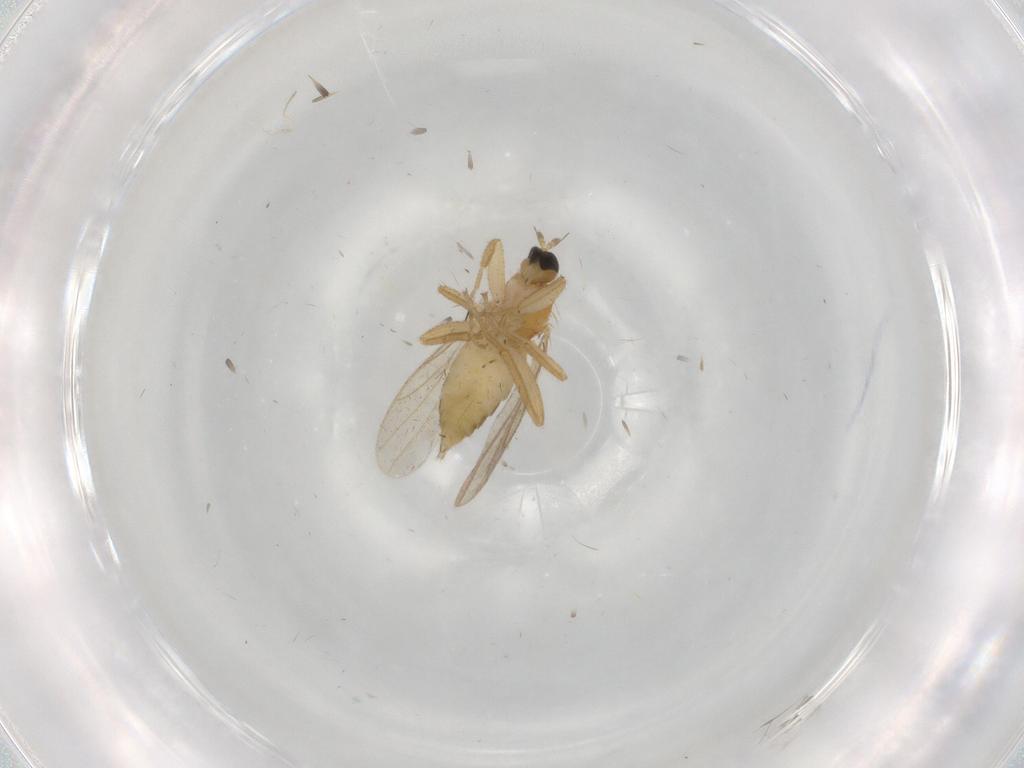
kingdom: Animalia
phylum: Arthropoda
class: Insecta
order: Diptera
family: Hybotidae
